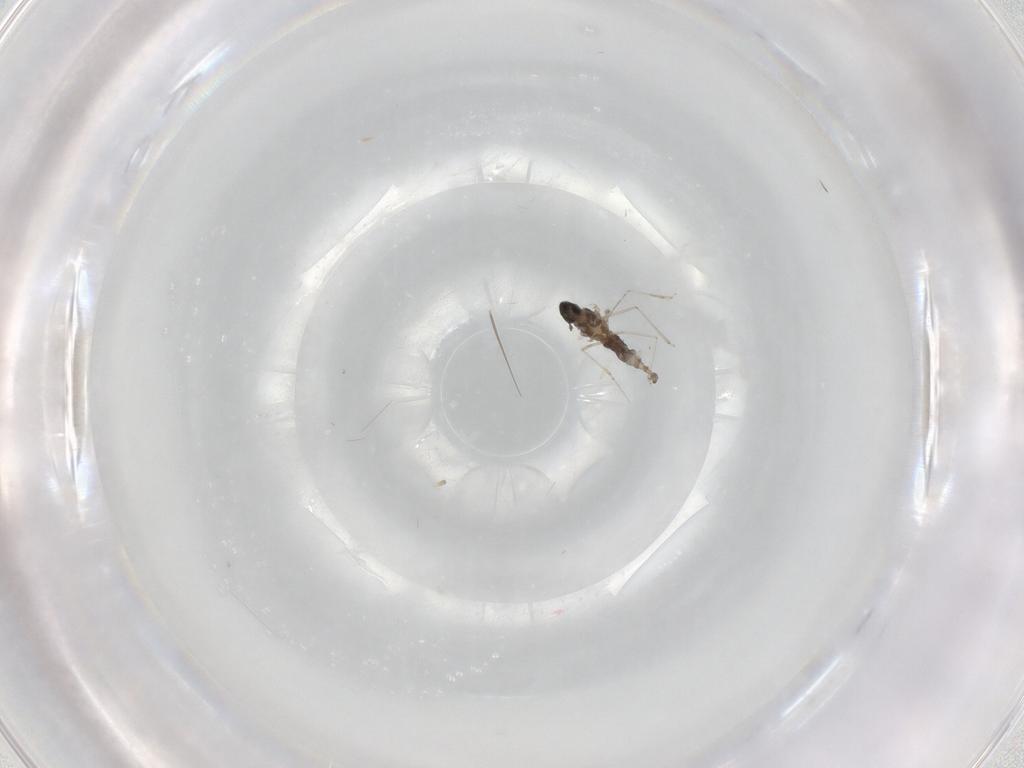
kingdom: Animalia
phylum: Arthropoda
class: Insecta
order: Diptera
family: Cecidomyiidae
